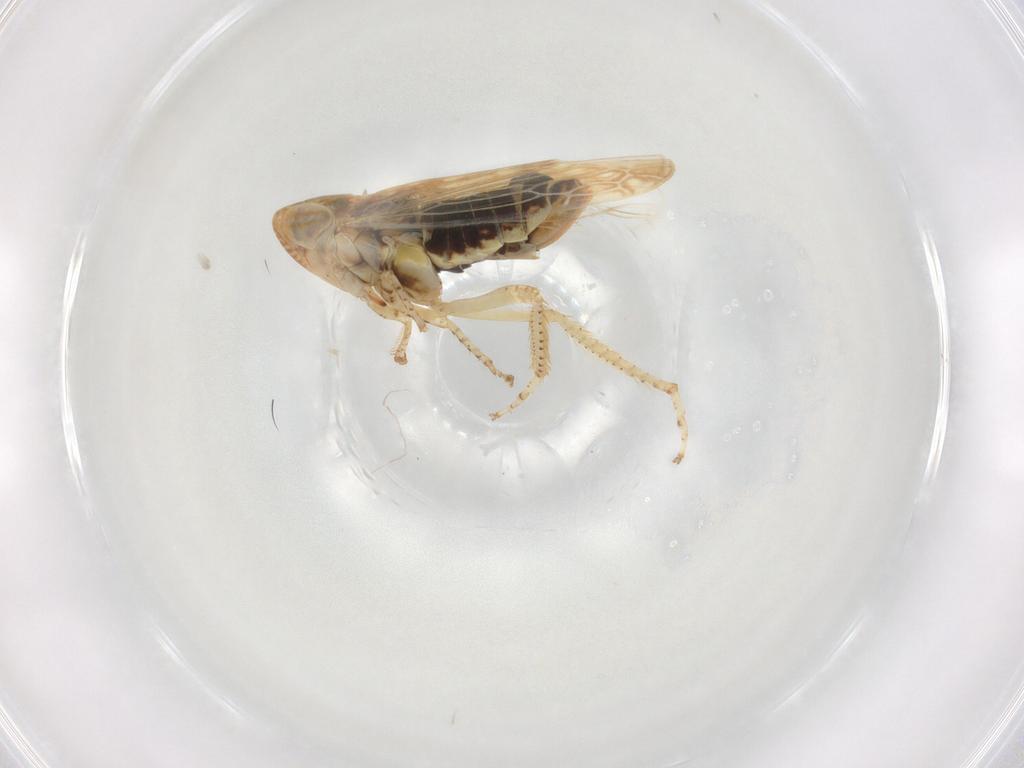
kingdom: Animalia
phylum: Arthropoda
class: Insecta
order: Hemiptera
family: Cicadellidae
